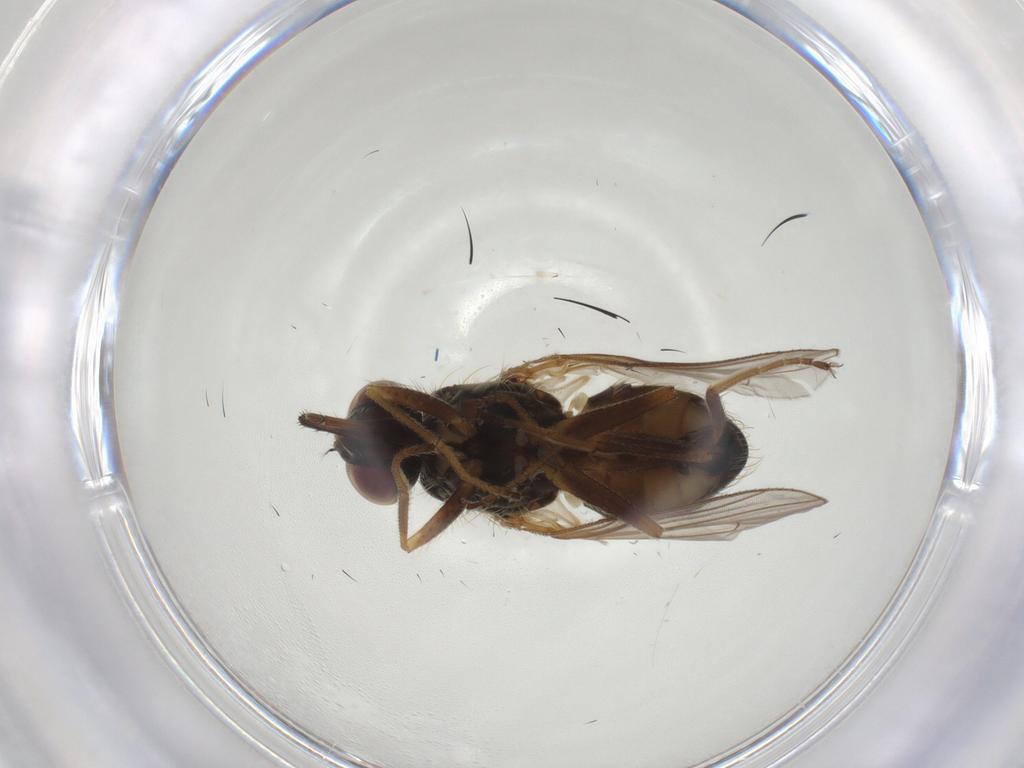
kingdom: Animalia
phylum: Arthropoda
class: Insecta
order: Diptera
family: Muscidae
